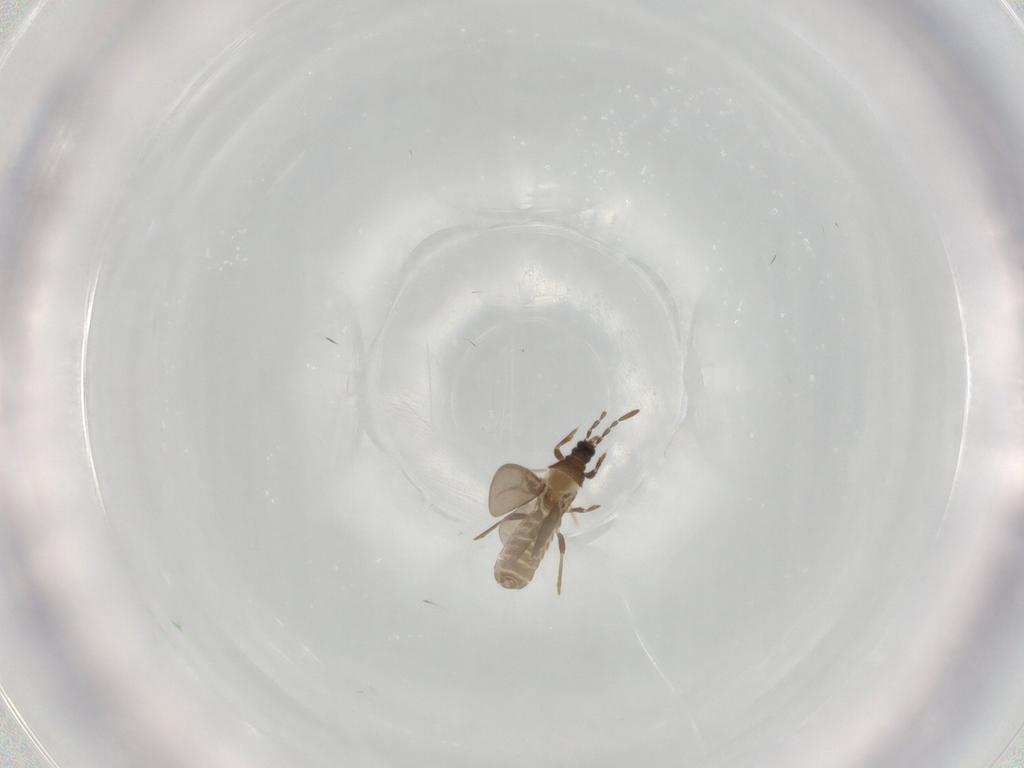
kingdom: Animalia
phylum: Arthropoda
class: Insecta
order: Hemiptera
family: Enicocephalidae
